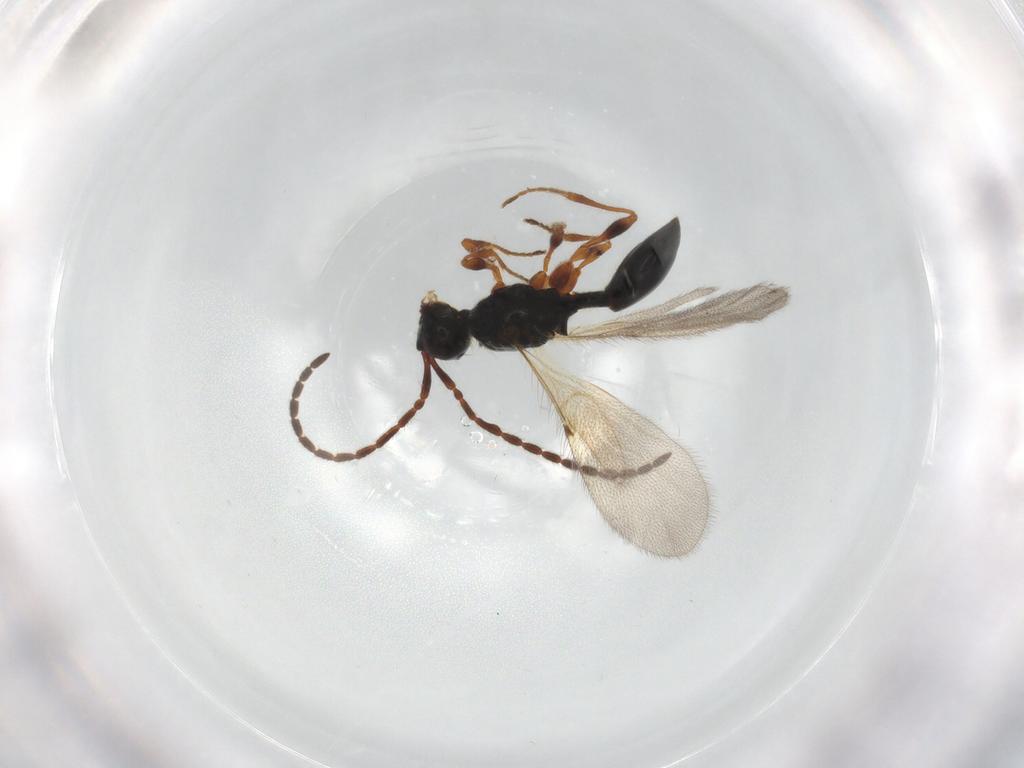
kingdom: Animalia
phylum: Arthropoda
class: Insecta
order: Hymenoptera
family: Diapriidae
